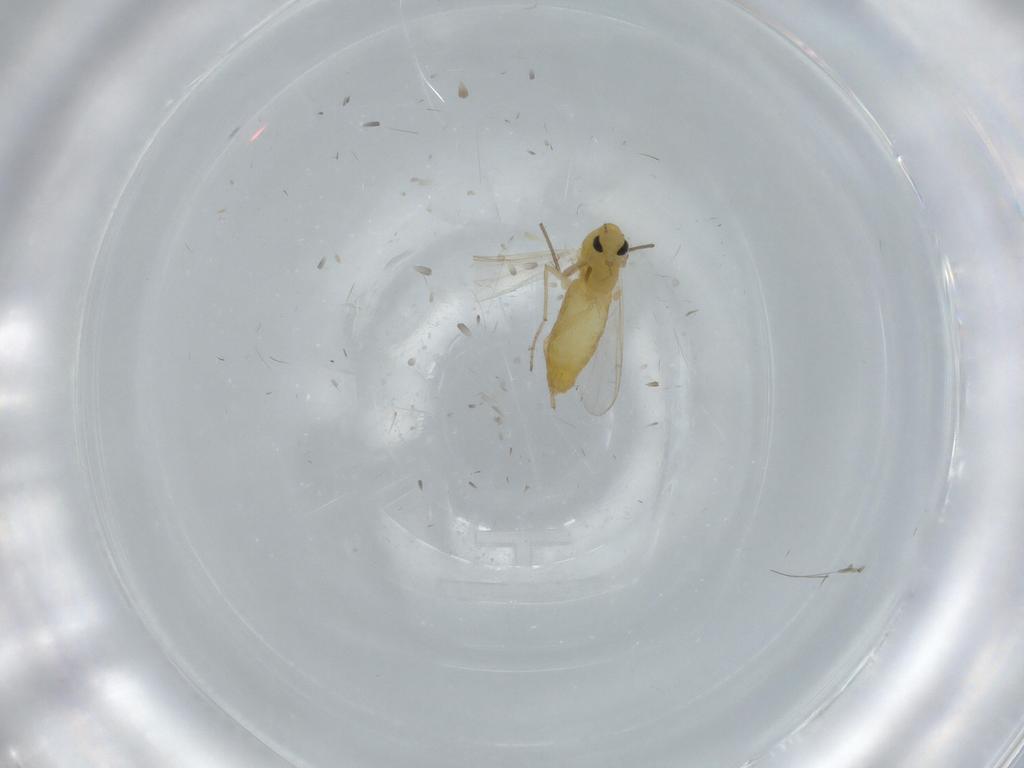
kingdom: Animalia
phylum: Arthropoda
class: Insecta
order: Diptera
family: Chironomidae
